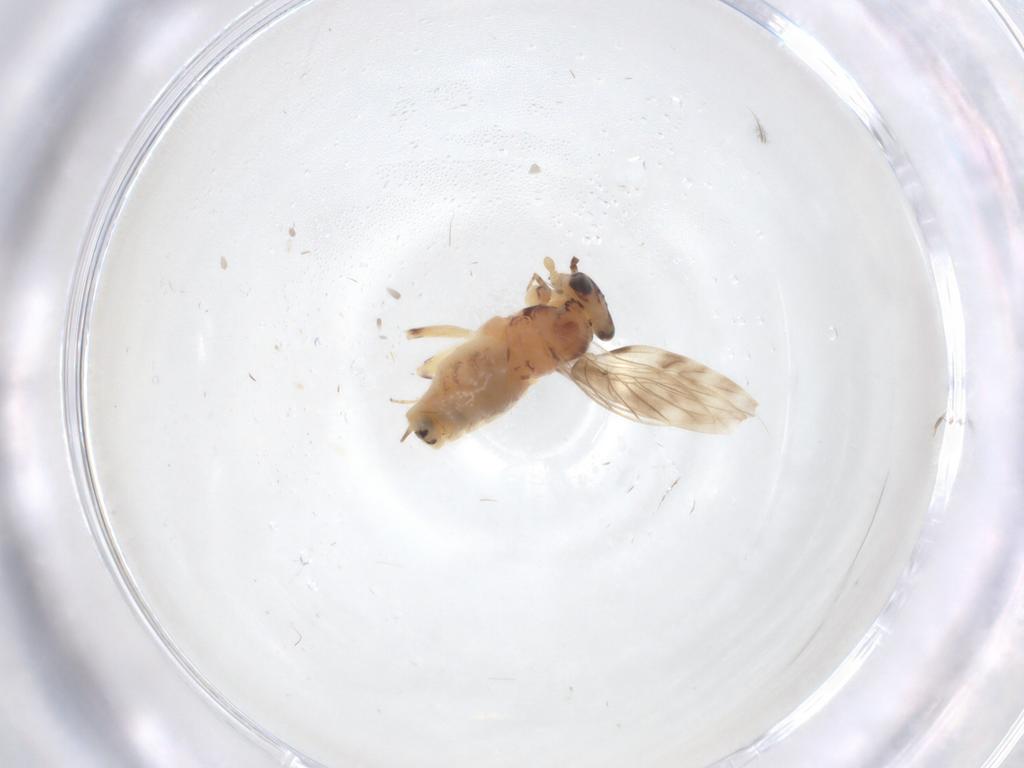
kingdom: Animalia
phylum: Arthropoda
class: Insecta
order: Psocodea
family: Lepidopsocidae
